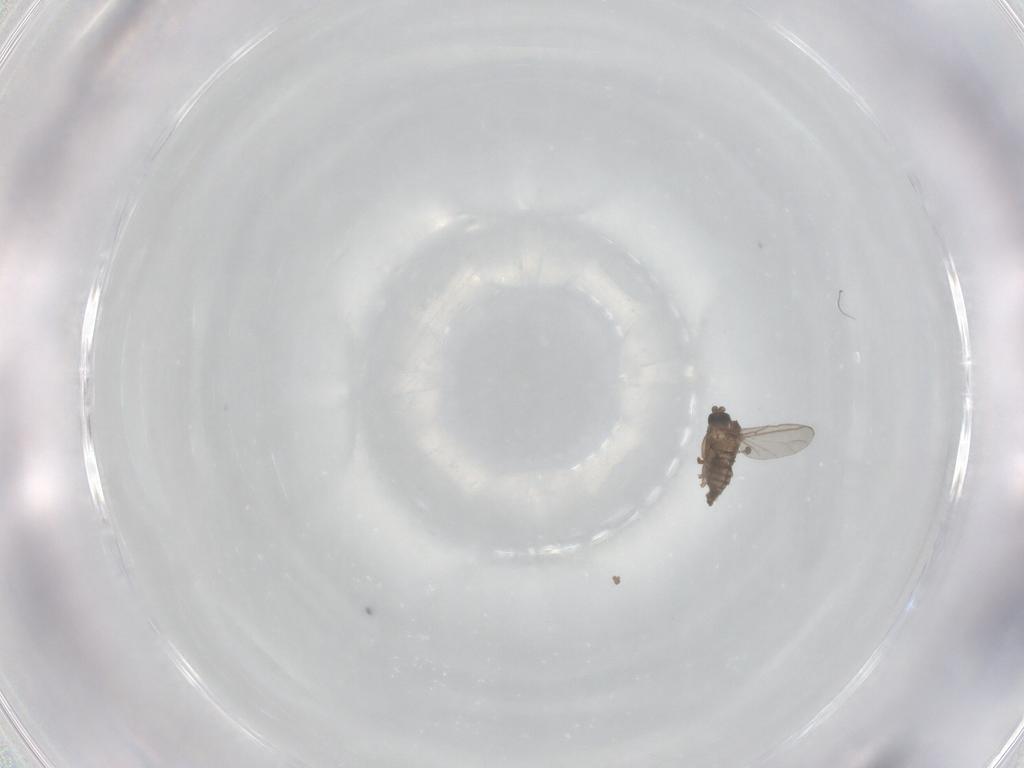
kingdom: Animalia
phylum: Arthropoda
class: Insecta
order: Diptera
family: Sciaridae
